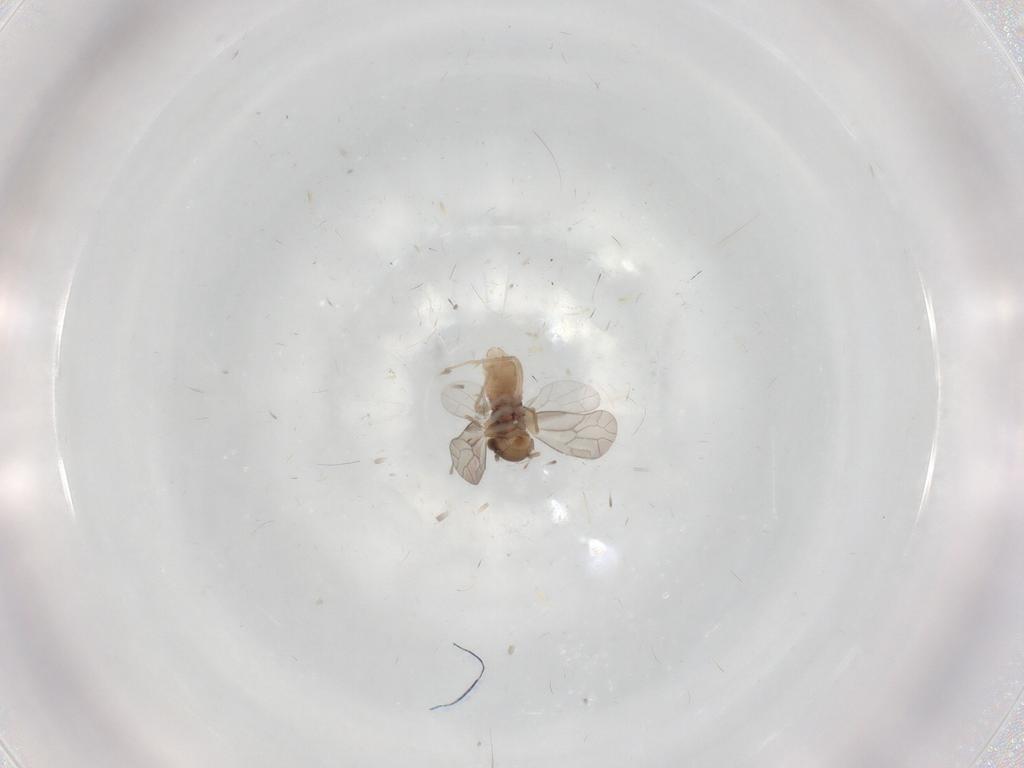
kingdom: Animalia
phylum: Arthropoda
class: Insecta
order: Psocodea
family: Peripsocidae
